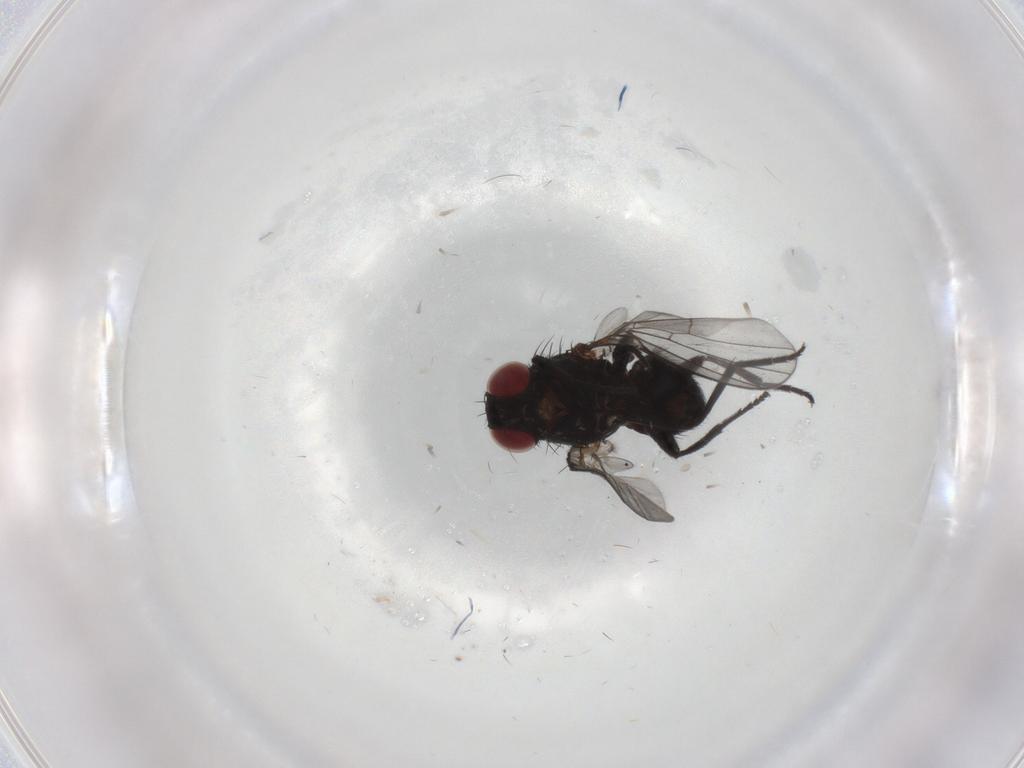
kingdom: Animalia
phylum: Arthropoda
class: Insecta
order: Diptera
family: Agromyzidae
